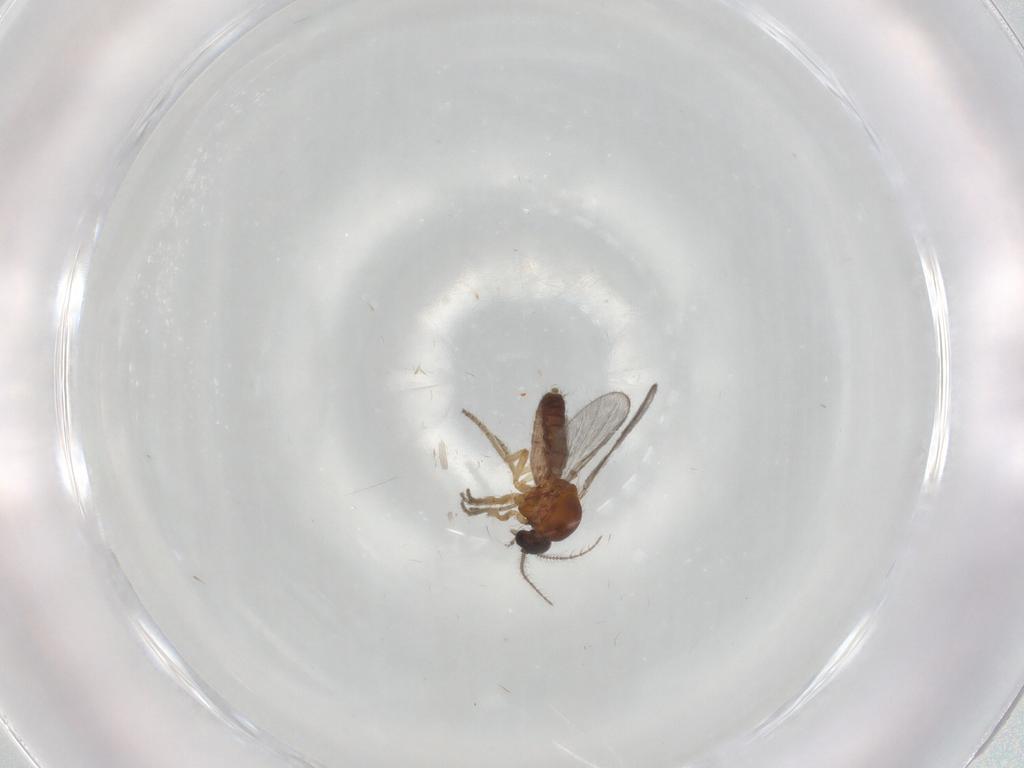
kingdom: Animalia
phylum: Arthropoda
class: Insecta
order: Diptera
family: Ceratopogonidae
